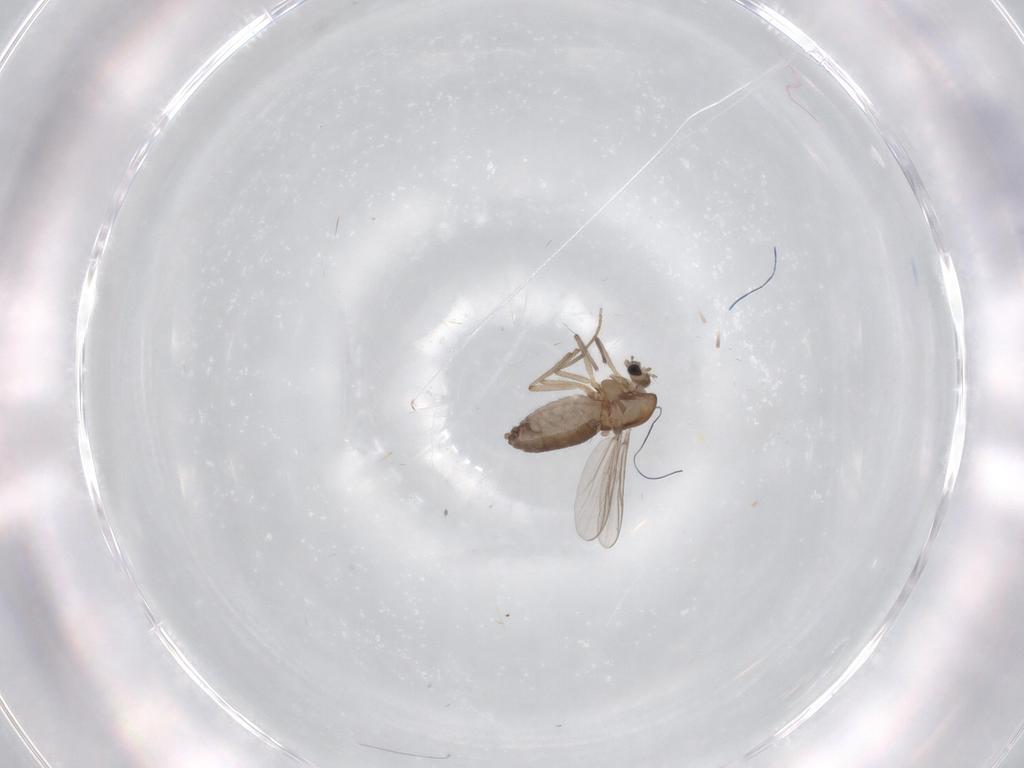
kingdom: Animalia
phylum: Arthropoda
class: Insecta
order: Diptera
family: Chironomidae
